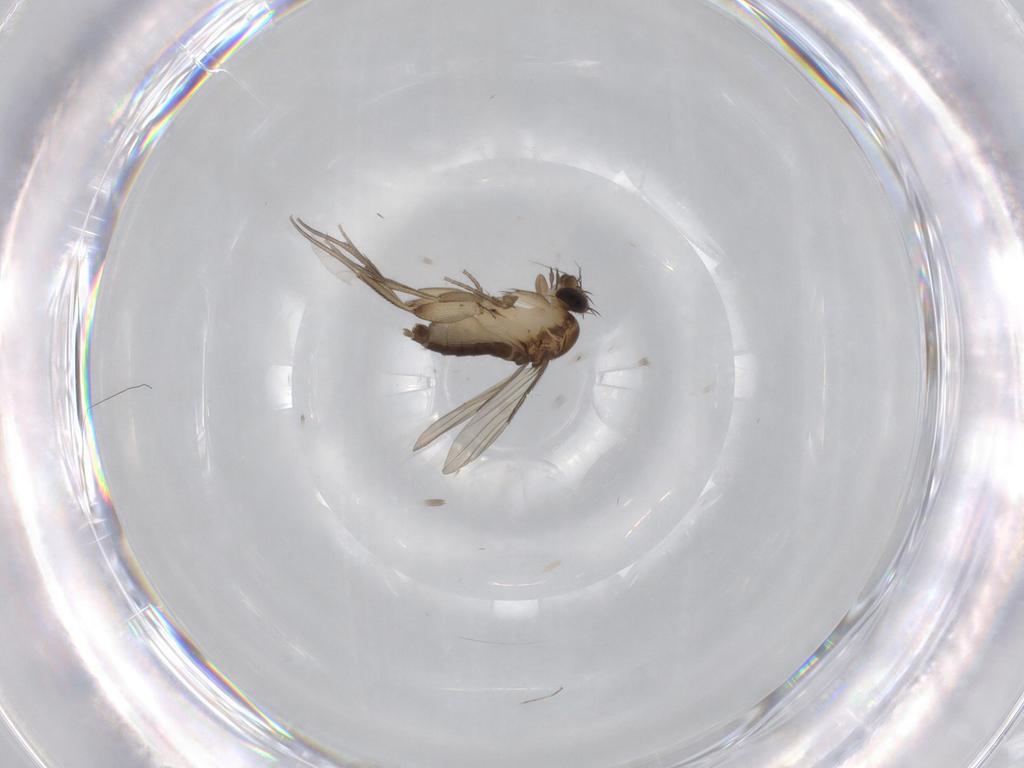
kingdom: Animalia
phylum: Arthropoda
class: Insecta
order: Diptera
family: Phoridae
